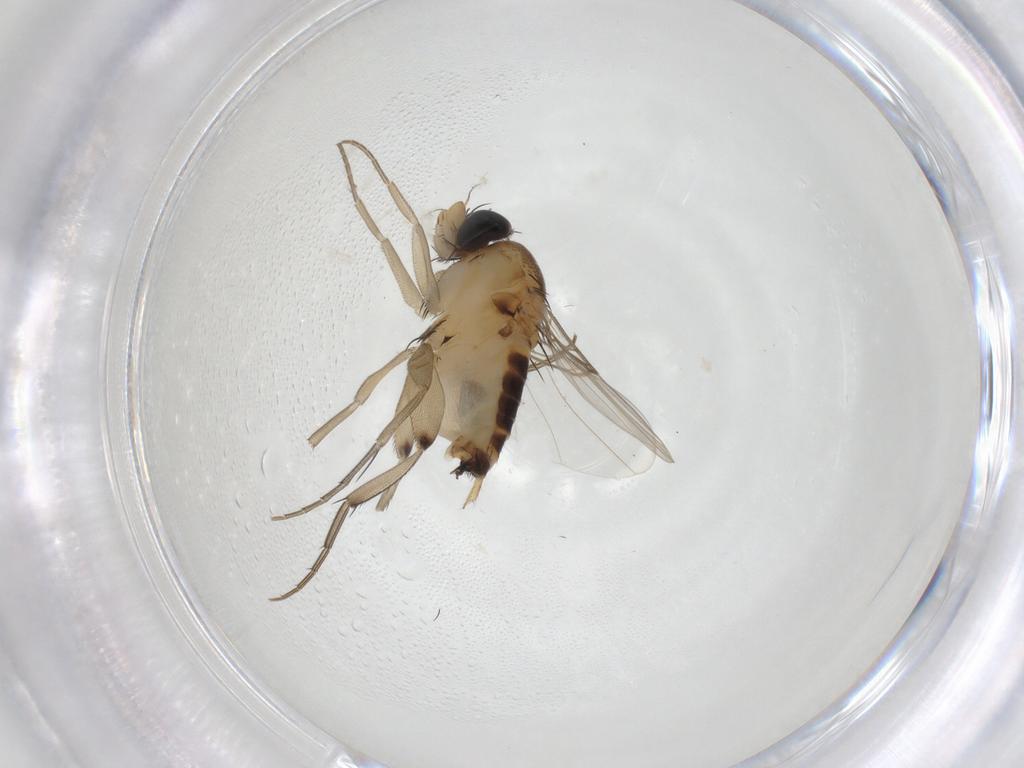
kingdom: Animalia
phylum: Arthropoda
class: Insecta
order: Diptera
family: Phoridae
